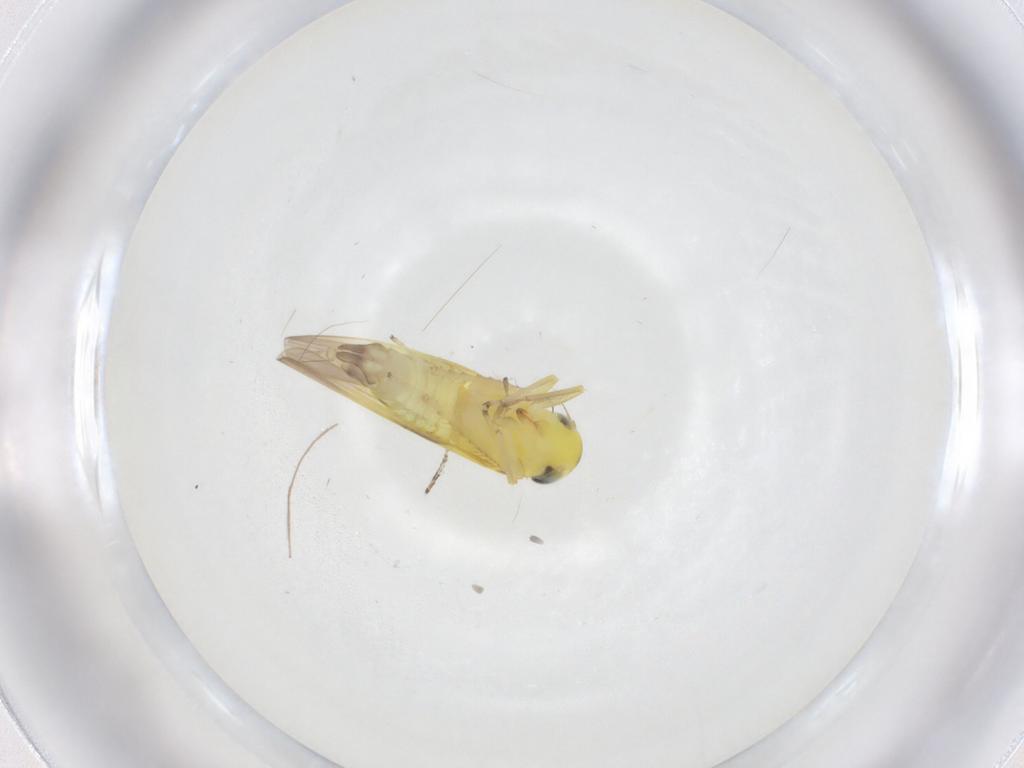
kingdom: Animalia
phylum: Arthropoda
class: Insecta
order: Hemiptera
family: Cicadellidae
